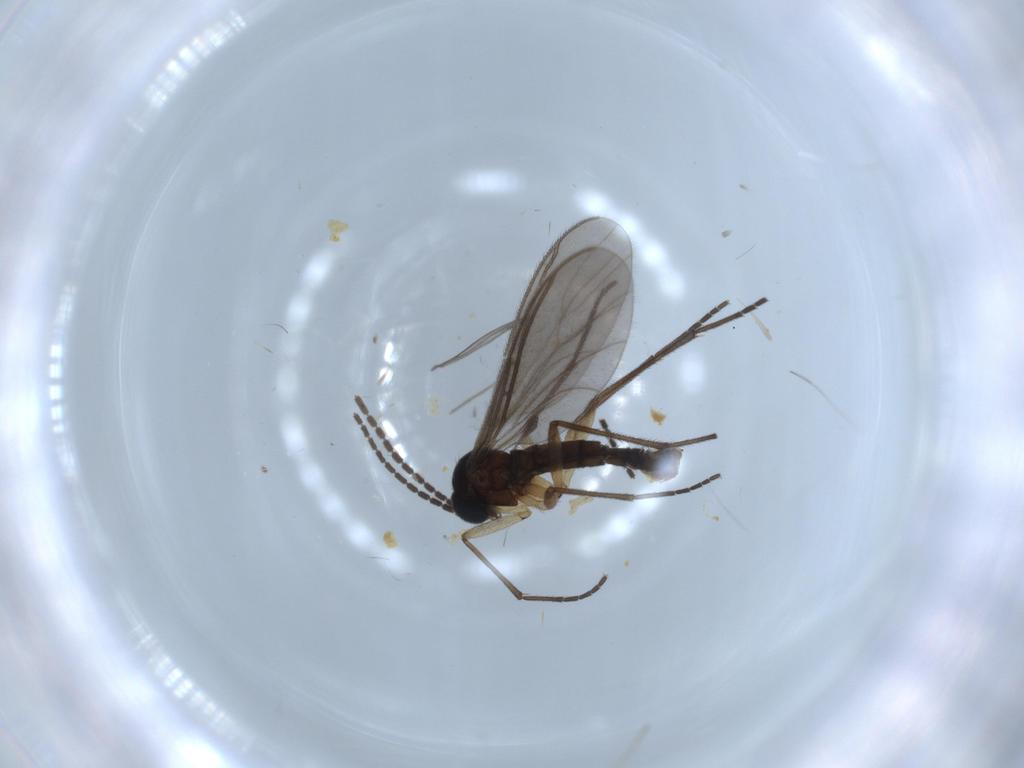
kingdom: Animalia
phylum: Arthropoda
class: Insecta
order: Diptera
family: Sciaridae
